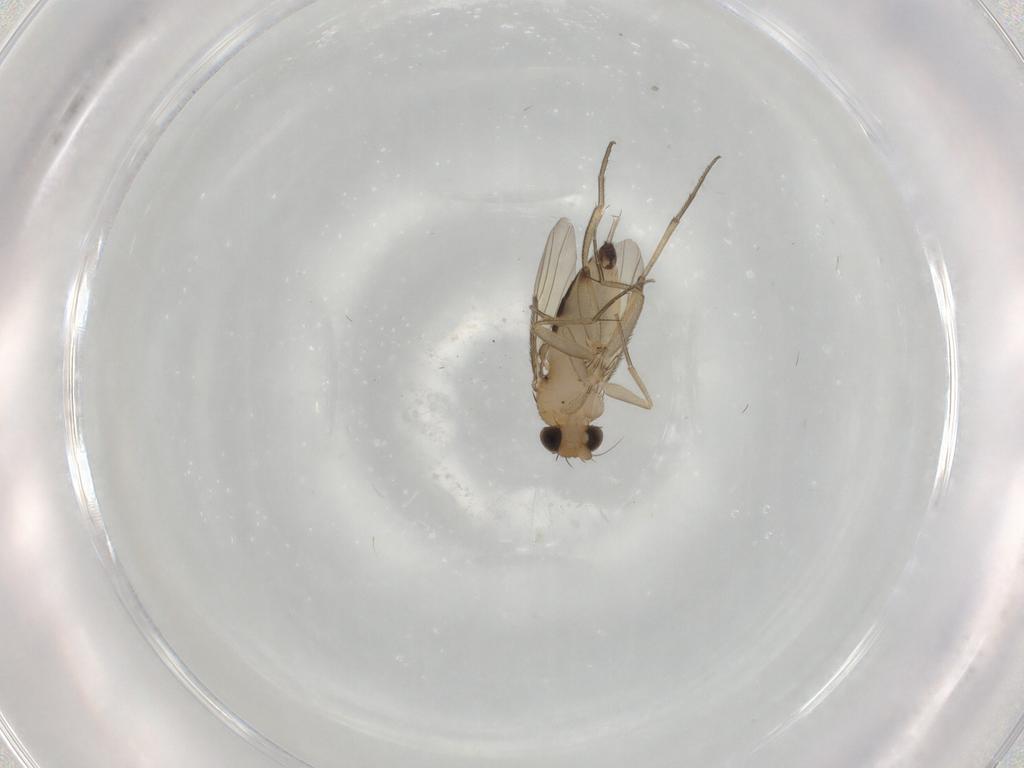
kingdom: Animalia
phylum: Arthropoda
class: Insecta
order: Diptera
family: Phoridae
